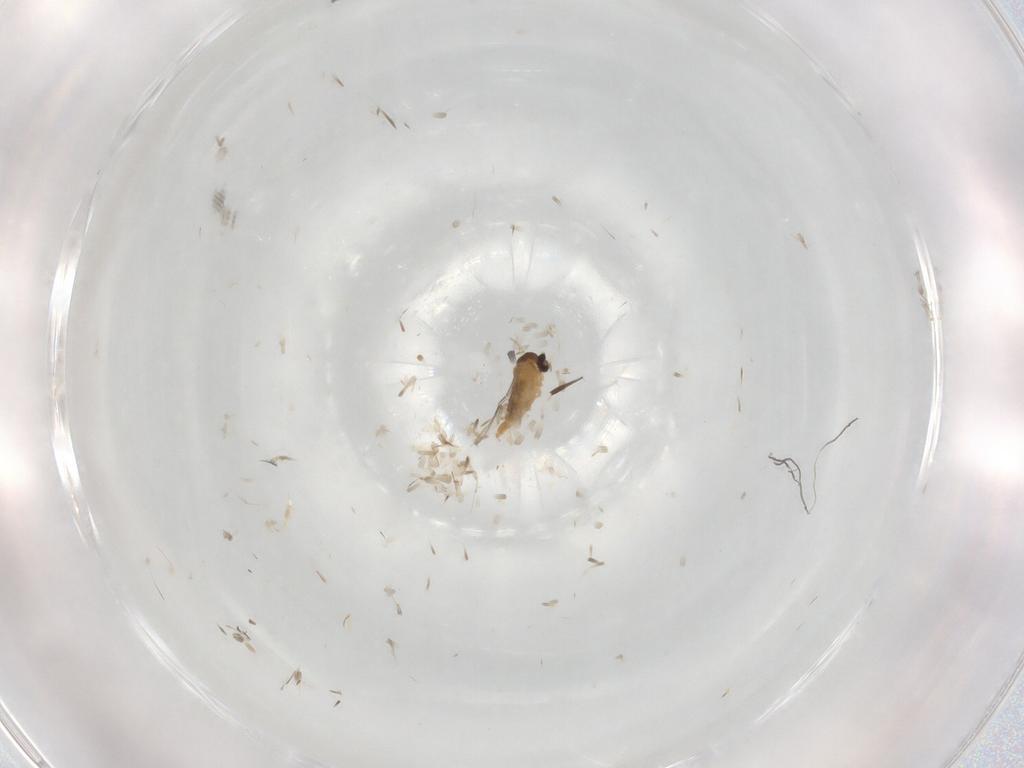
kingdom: Animalia
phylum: Arthropoda
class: Insecta
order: Diptera
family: Cecidomyiidae
